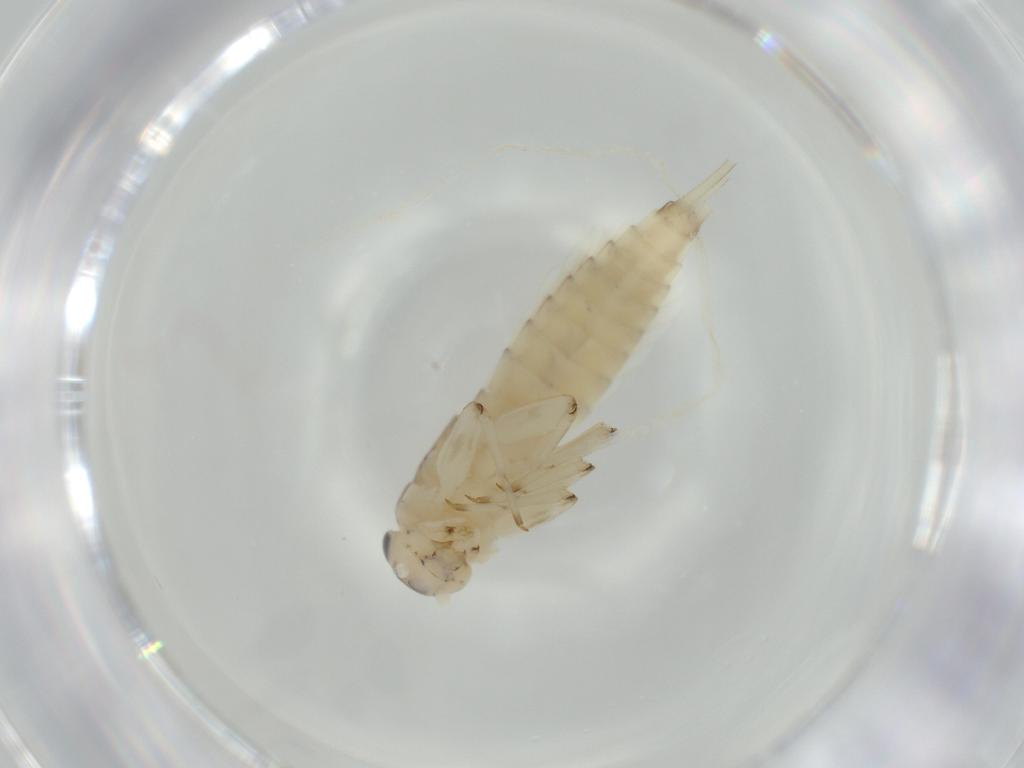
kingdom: Animalia
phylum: Arthropoda
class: Insecta
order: Ephemeroptera
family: Baetidae
